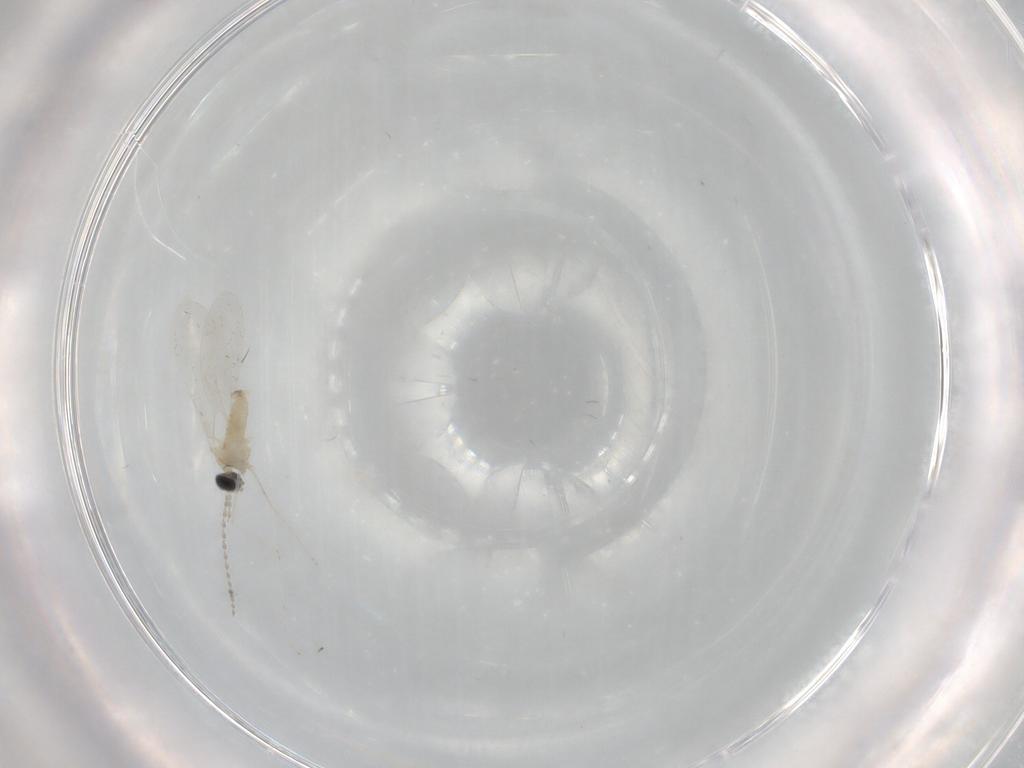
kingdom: Animalia
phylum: Arthropoda
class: Insecta
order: Diptera
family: Cecidomyiidae
